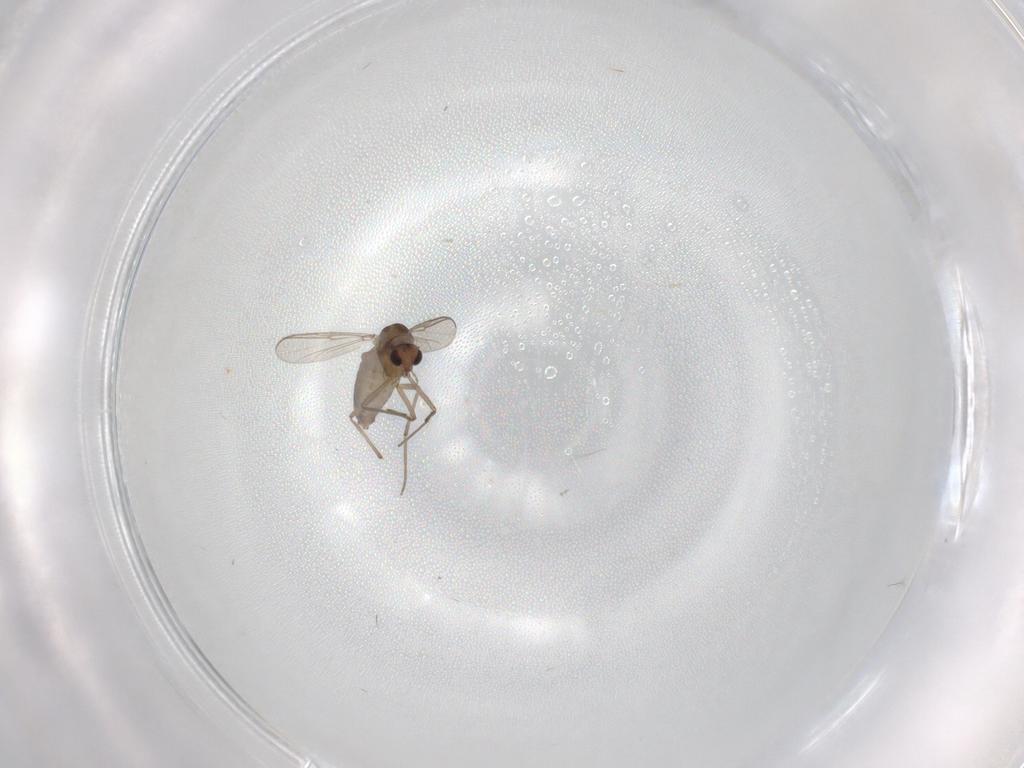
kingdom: Animalia
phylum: Arthropoda
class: Insecta
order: Diptera
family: Chironomidae
